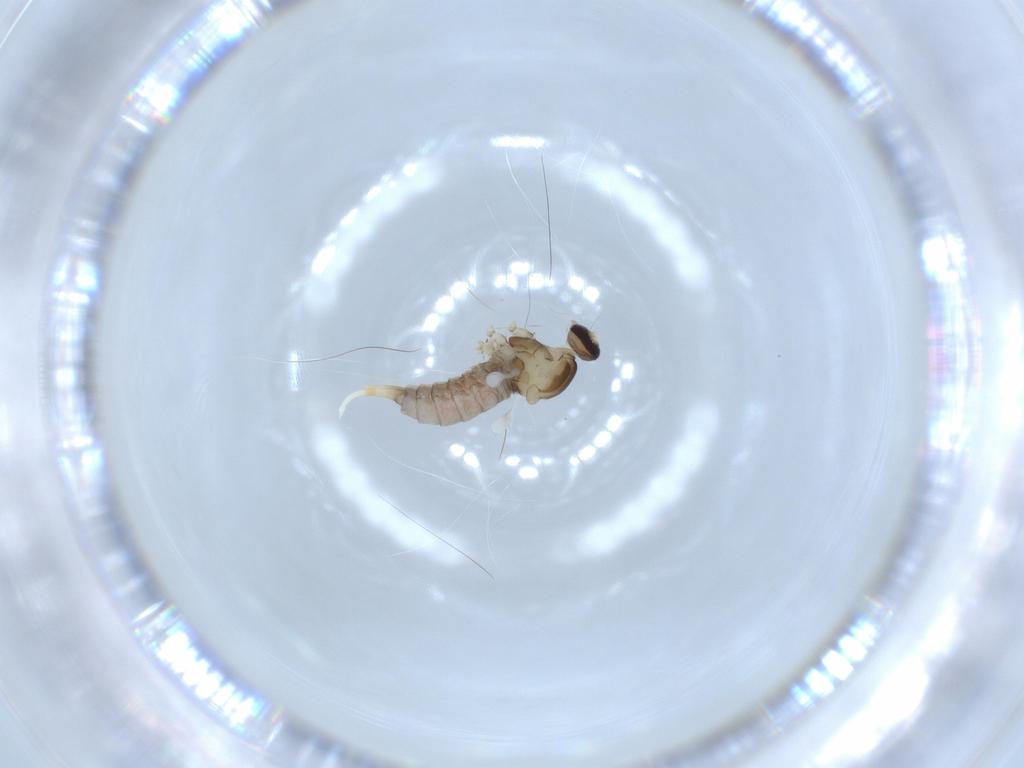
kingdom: Animalia
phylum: Arthropoda
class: Insecta
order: Diptera
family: Cecidomyiidae
